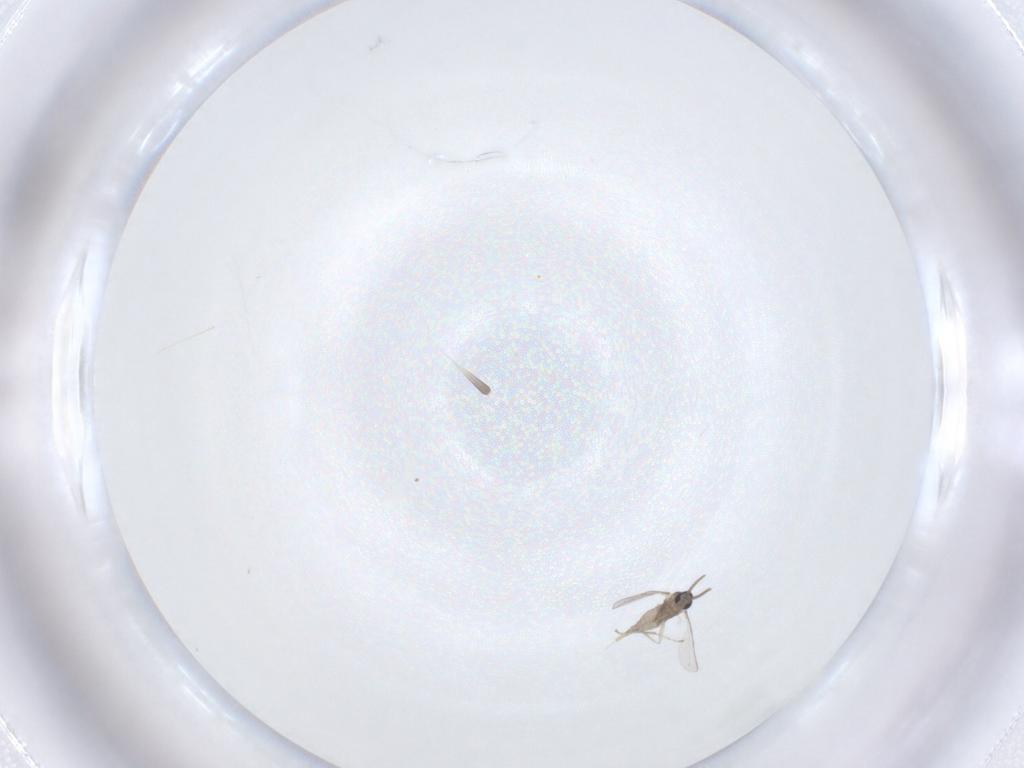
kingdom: Animalia
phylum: Arthropoda
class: Insecta
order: Diptera
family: Cecidomyiidae
